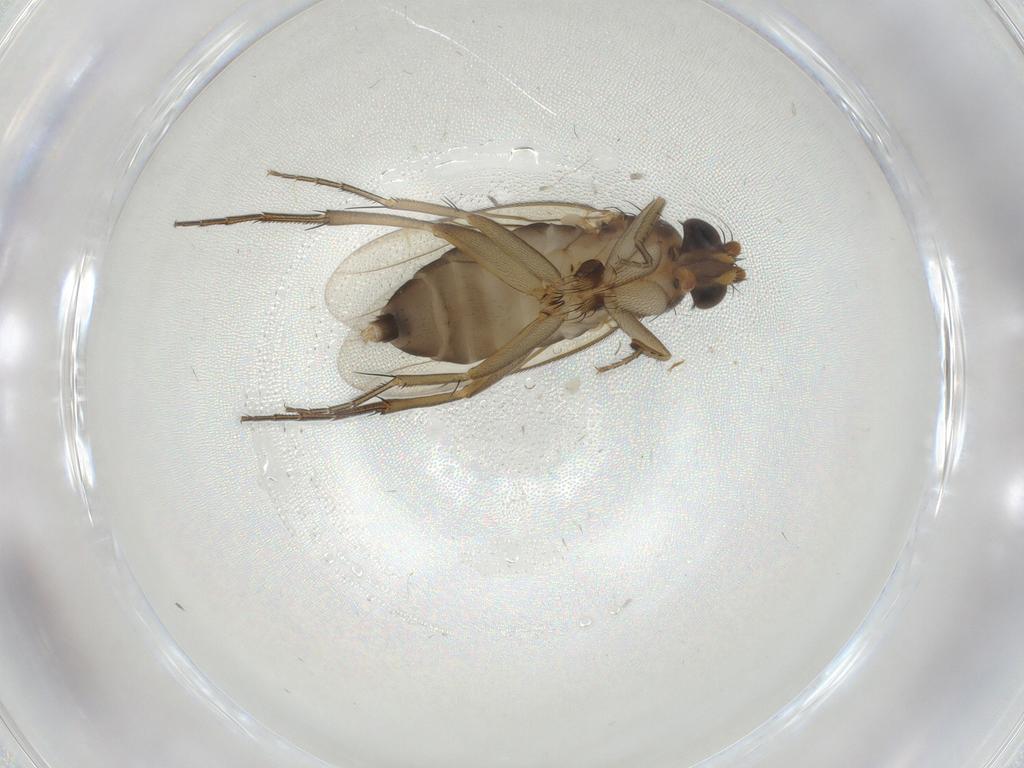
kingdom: Animalia
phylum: Arthropoda
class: Insecta
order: Diptera
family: Phoridae
